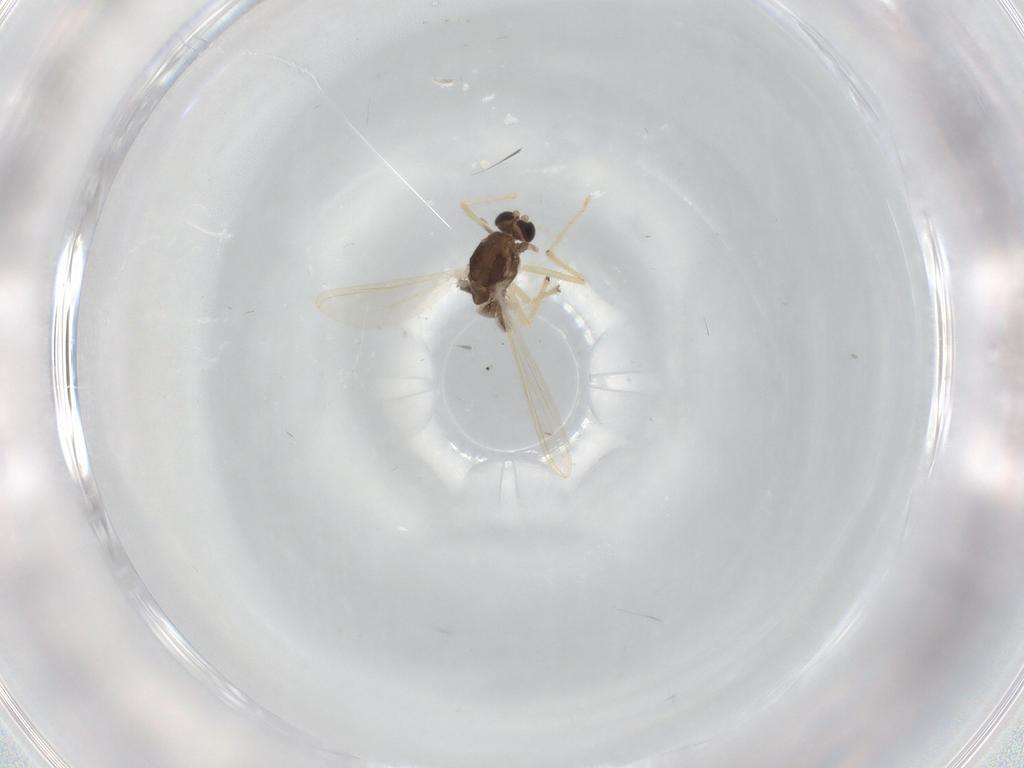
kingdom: Animalia
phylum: Arthropoda
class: Insecta
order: Diptera
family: Chironomidae
